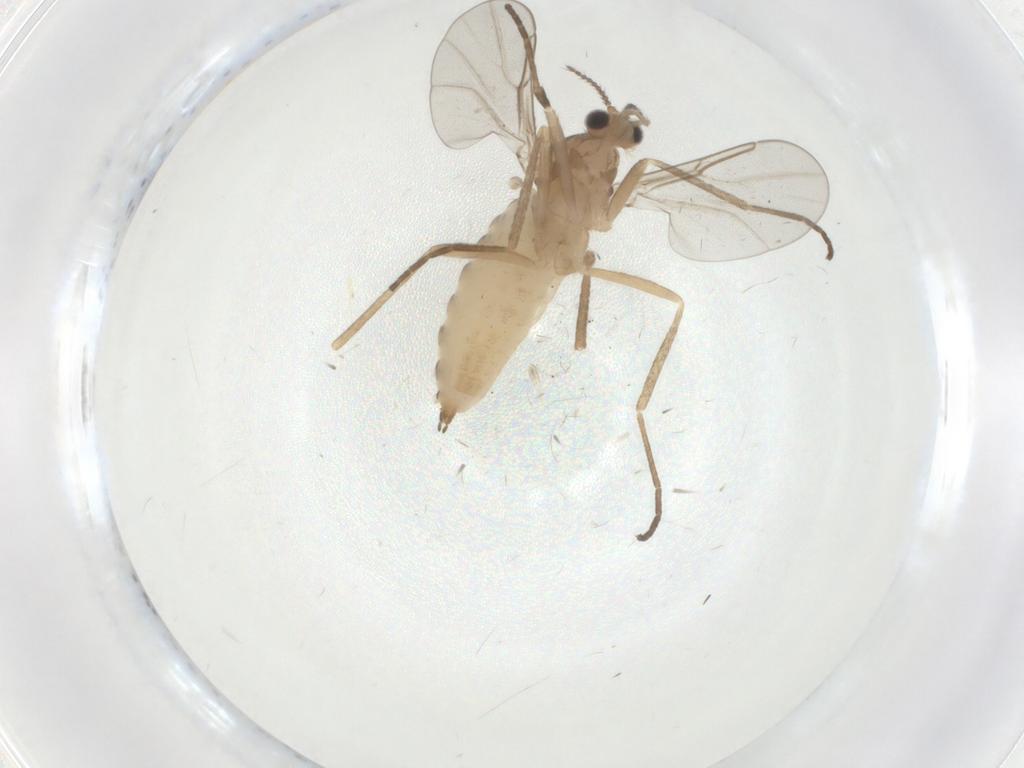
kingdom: Animalia
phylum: Arthropoda
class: Insecta
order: Diptera
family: Cecidomyiidae
